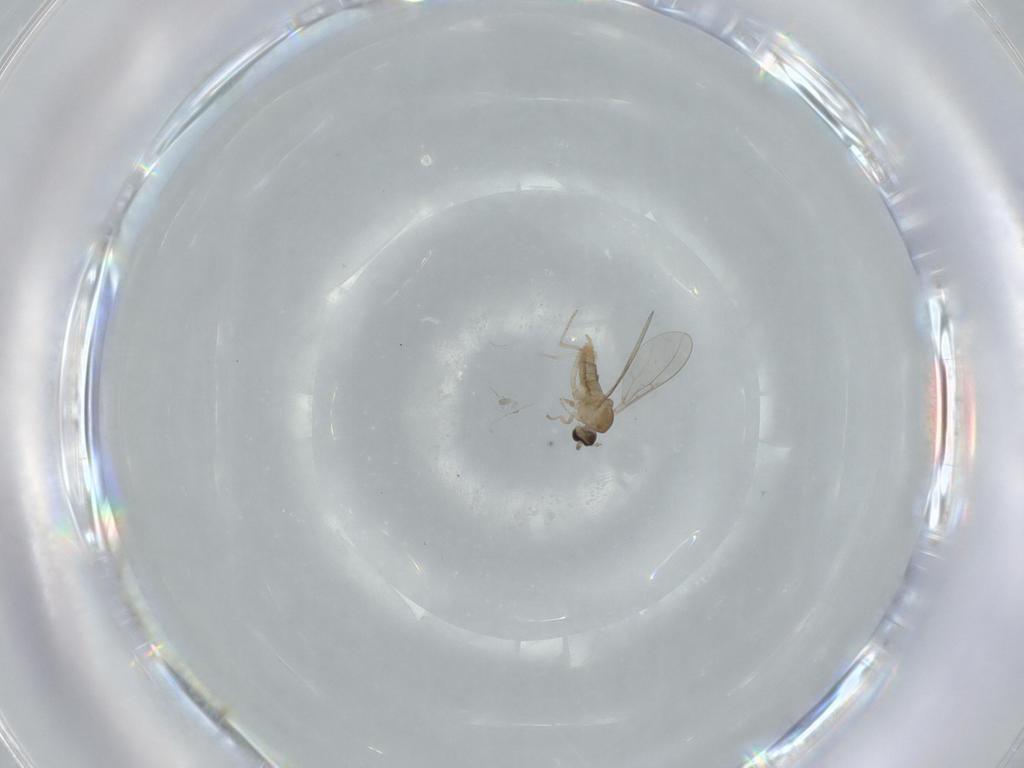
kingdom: Animalia
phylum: Arthropoda
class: Insecta
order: Diptera
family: Cecidomyiidae
